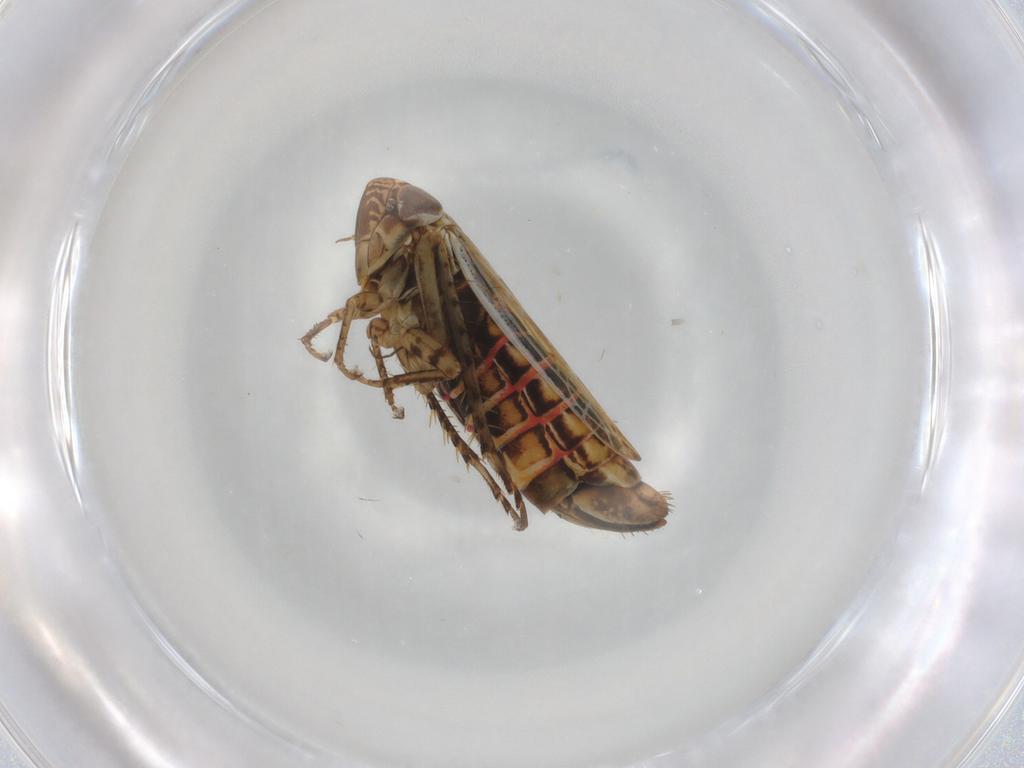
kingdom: Animalia
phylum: Arthropoda
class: Insecta
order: Hemiptera
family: Cicadellidae
